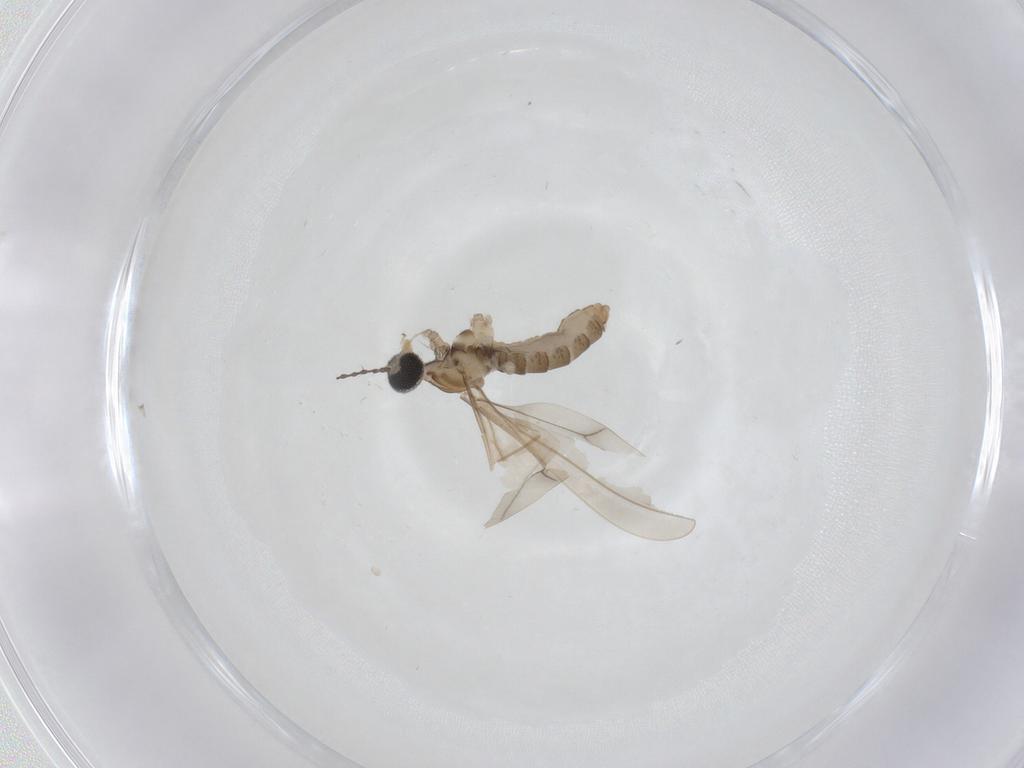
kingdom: Animalia
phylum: Arthropoda
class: Insecta
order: Diptera
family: Cecidomyiidae
